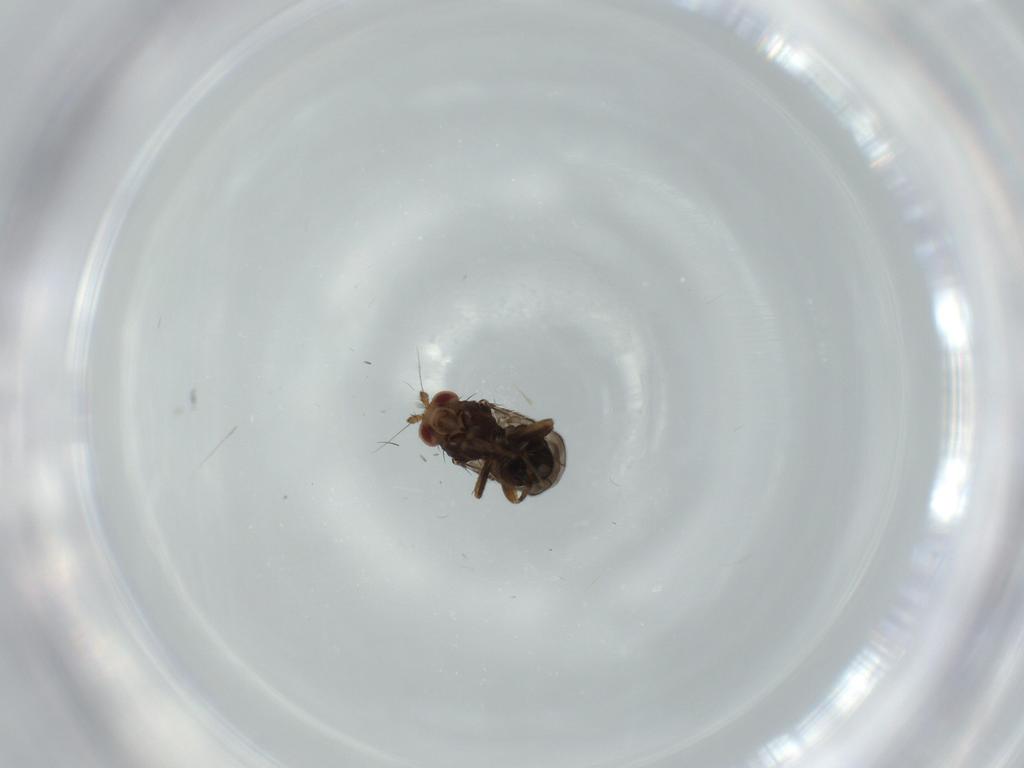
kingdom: Animalia
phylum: Arthropoda
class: Insecta
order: Diptera
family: Sphaeroceridae
